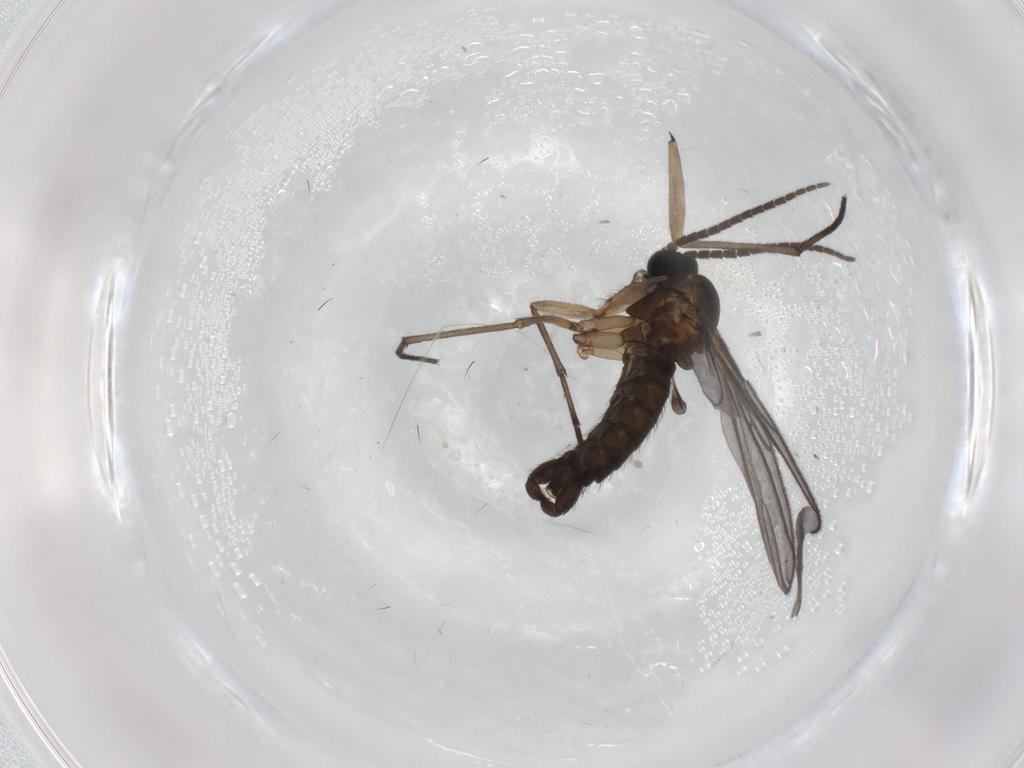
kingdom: Animalia
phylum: Arthropoda
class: Insecta
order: Diptera
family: Sciaridae
